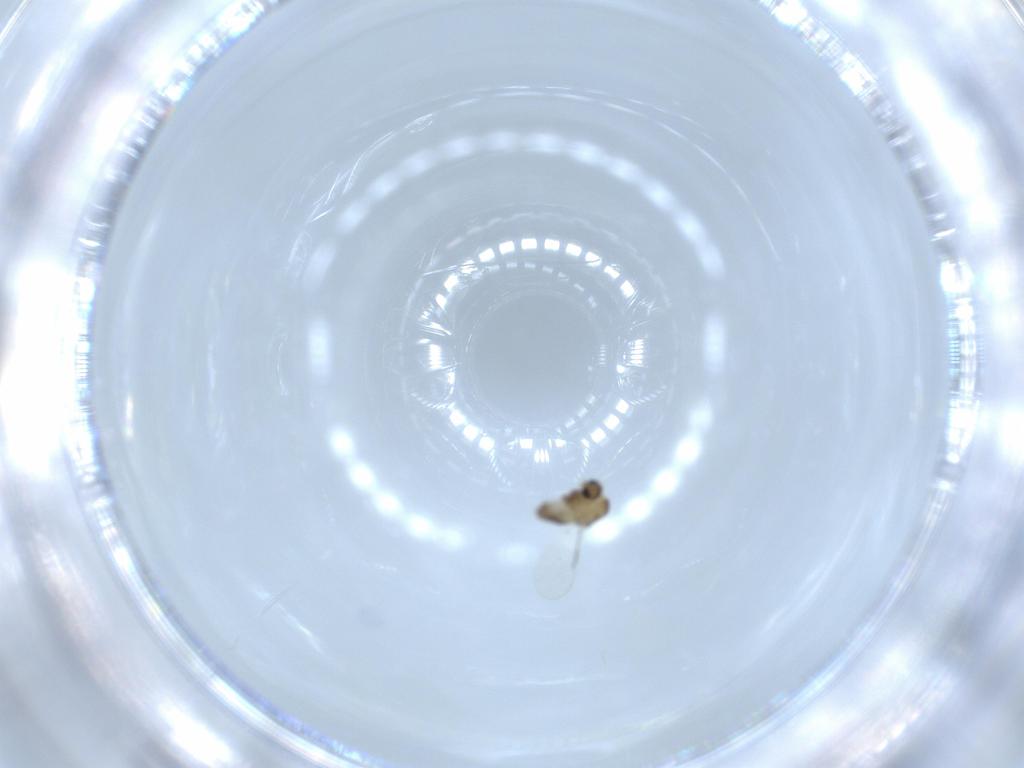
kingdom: Animalia
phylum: Arthropoda
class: Insecta
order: Diptera
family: Chironomidae
